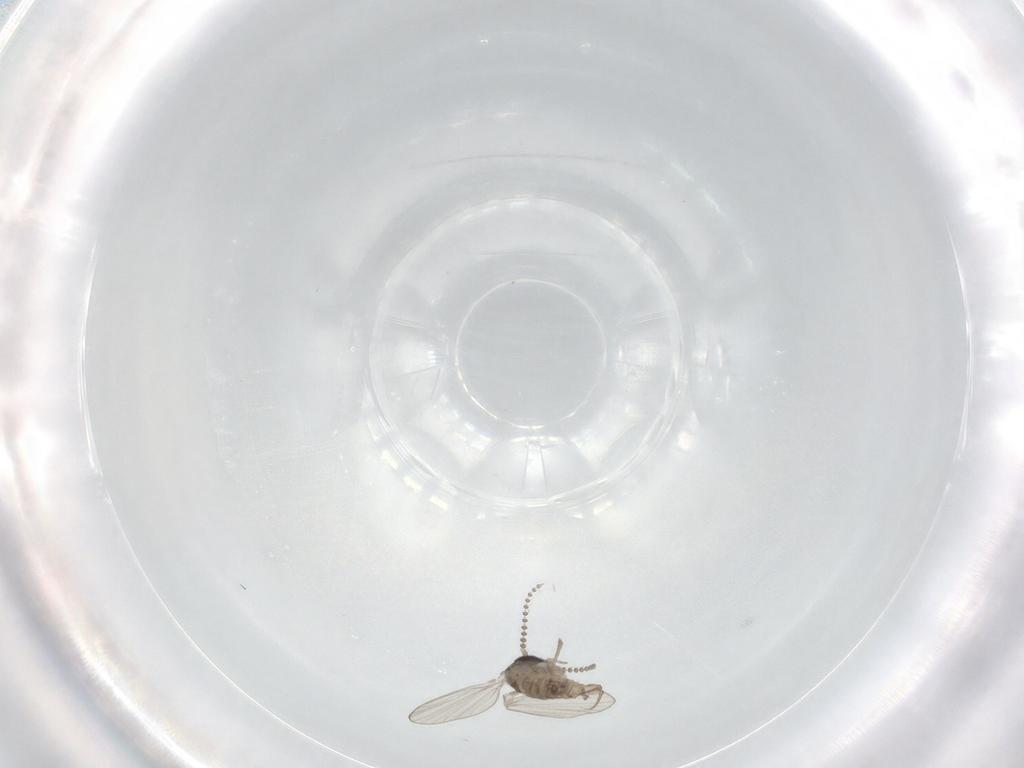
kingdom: Animalia
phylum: Arthropoda
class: Insecta
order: Diptera
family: Psychodidae
